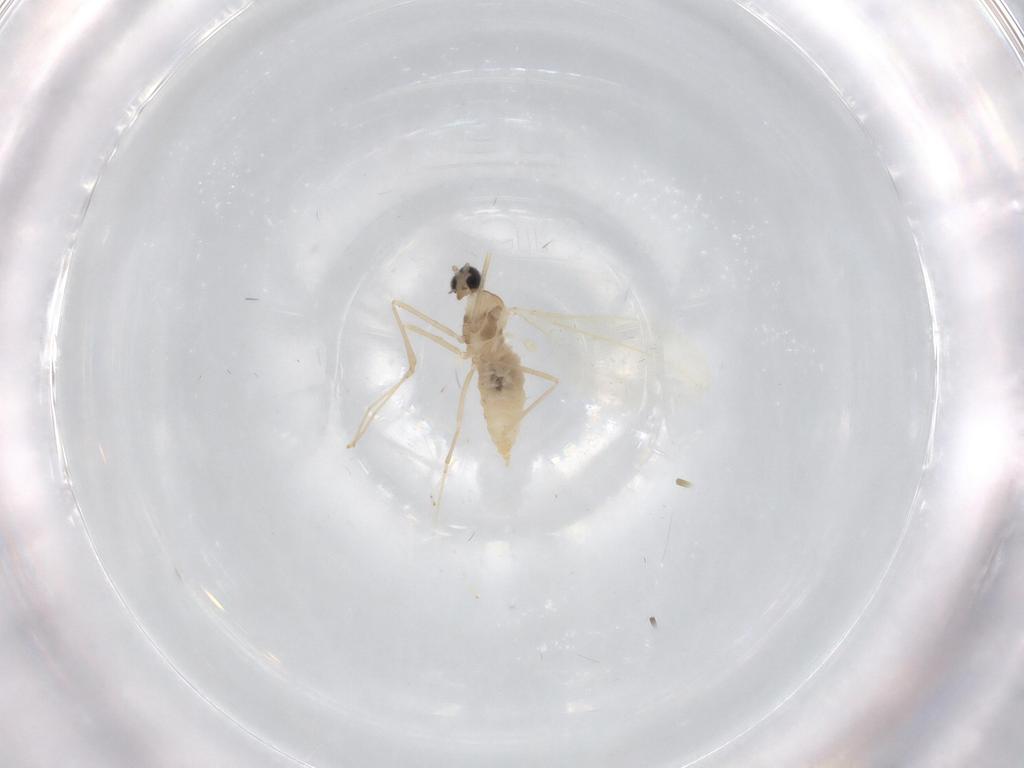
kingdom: Animalia
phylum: Arthropoda
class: Insecta
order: Diptera
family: Cecidomyiidae
